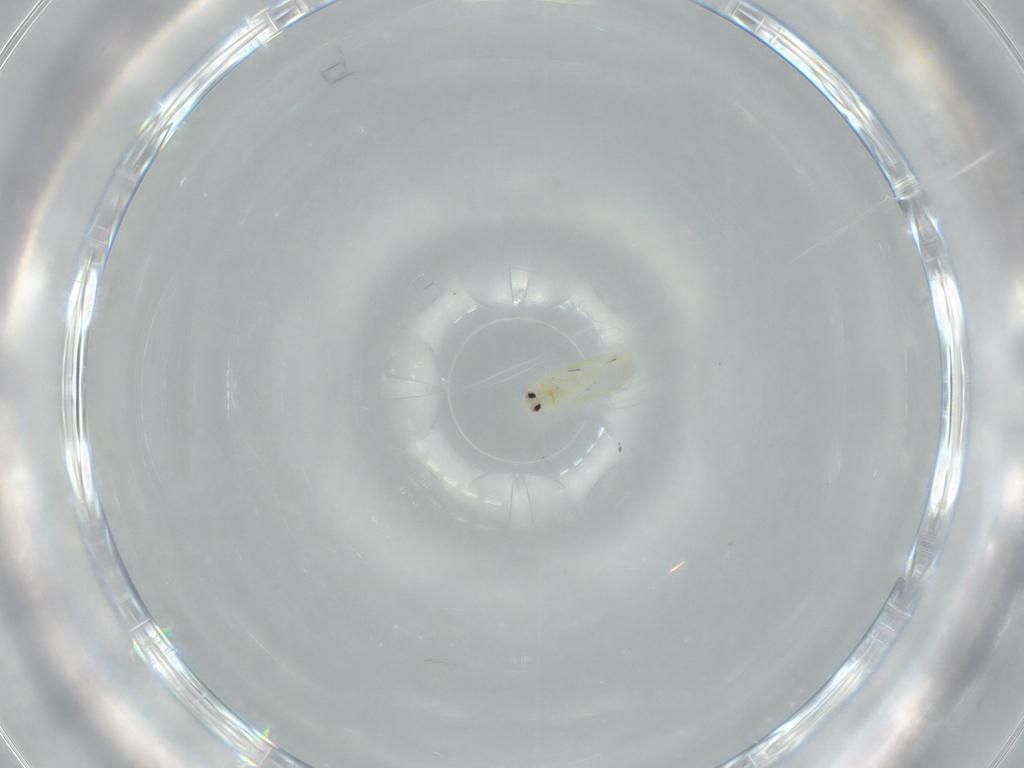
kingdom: Animalia
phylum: Arthropoda
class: Insecta
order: Hemiptera
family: Aleyrodidae
